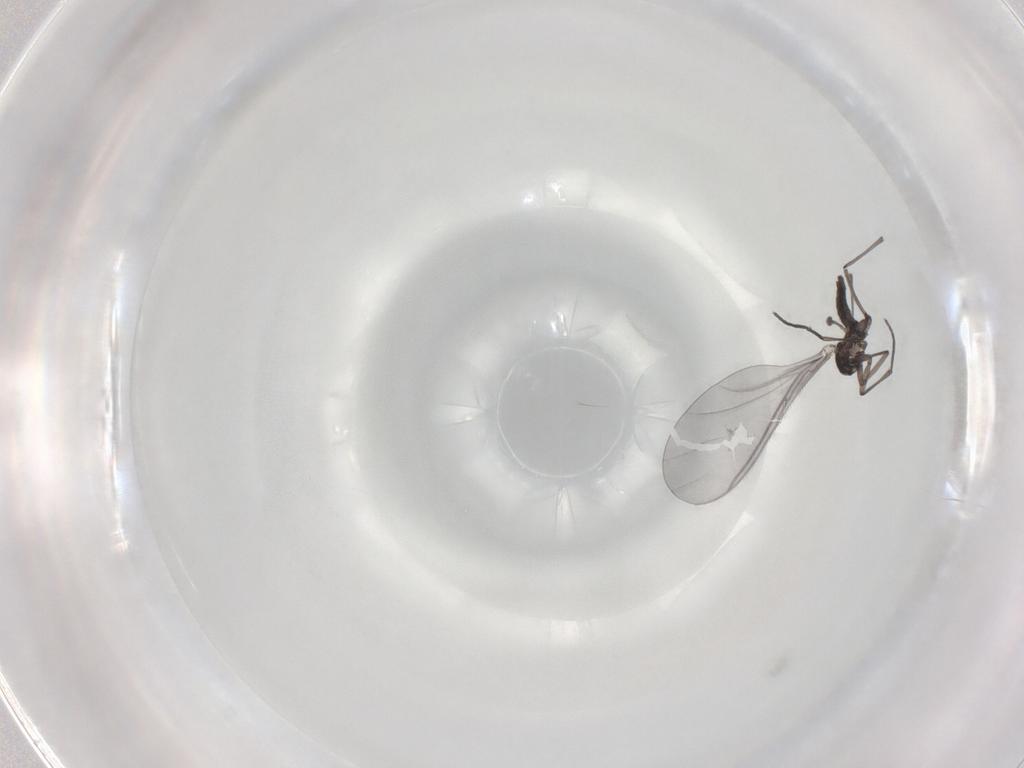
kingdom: Animalia
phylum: Arthropoda
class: Insecta
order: Diptera
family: Sciaridae
